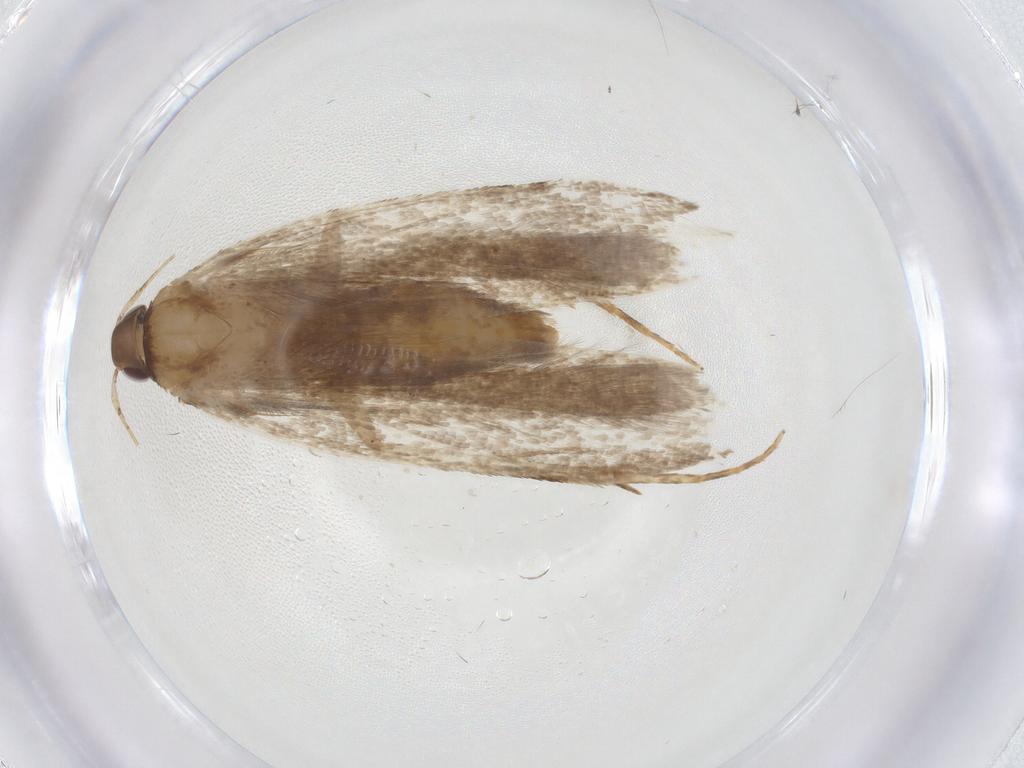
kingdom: Animalia
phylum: Arthropoda
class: Insecta
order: Lepidoptera
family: Gelechiidae
